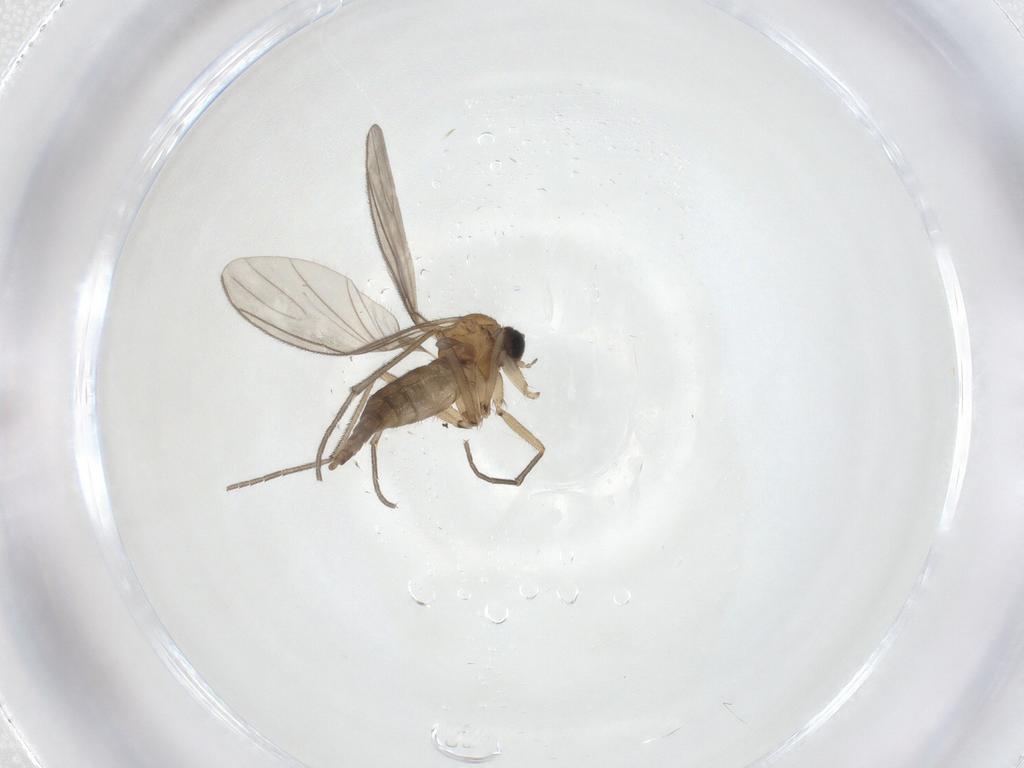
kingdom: Animalia
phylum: Arthropoda
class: Insecta
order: Diptera
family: Sciaridae
